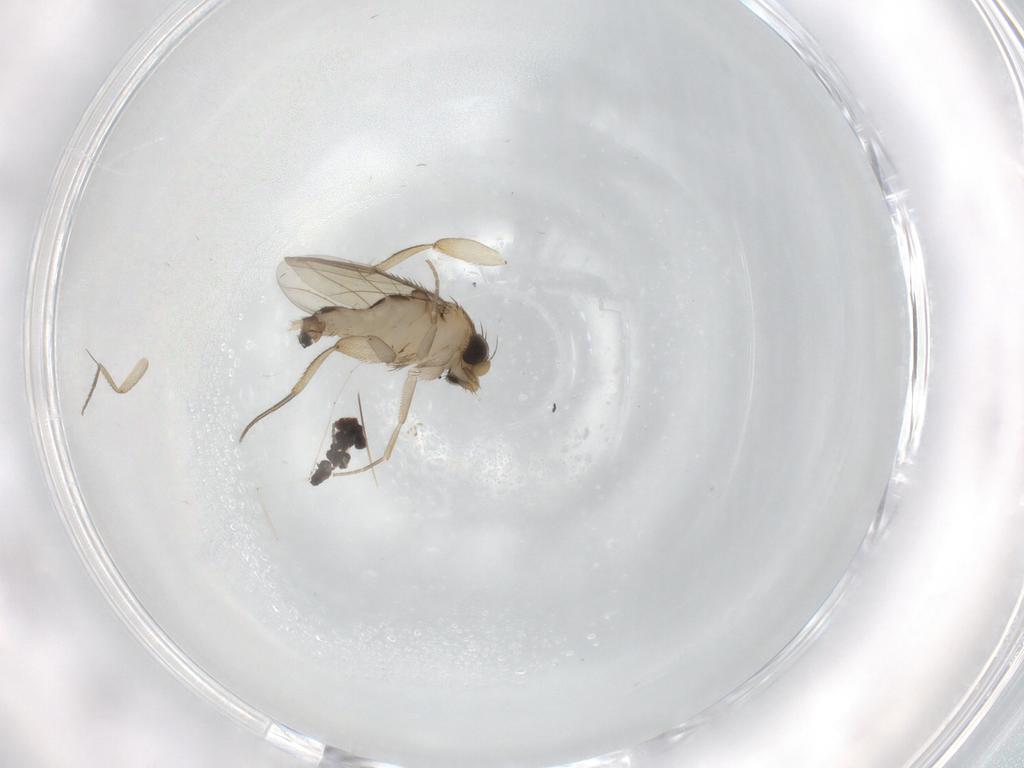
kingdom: Animalia
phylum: Arthropoda
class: Insecta
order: Diptera
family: Phoridae
